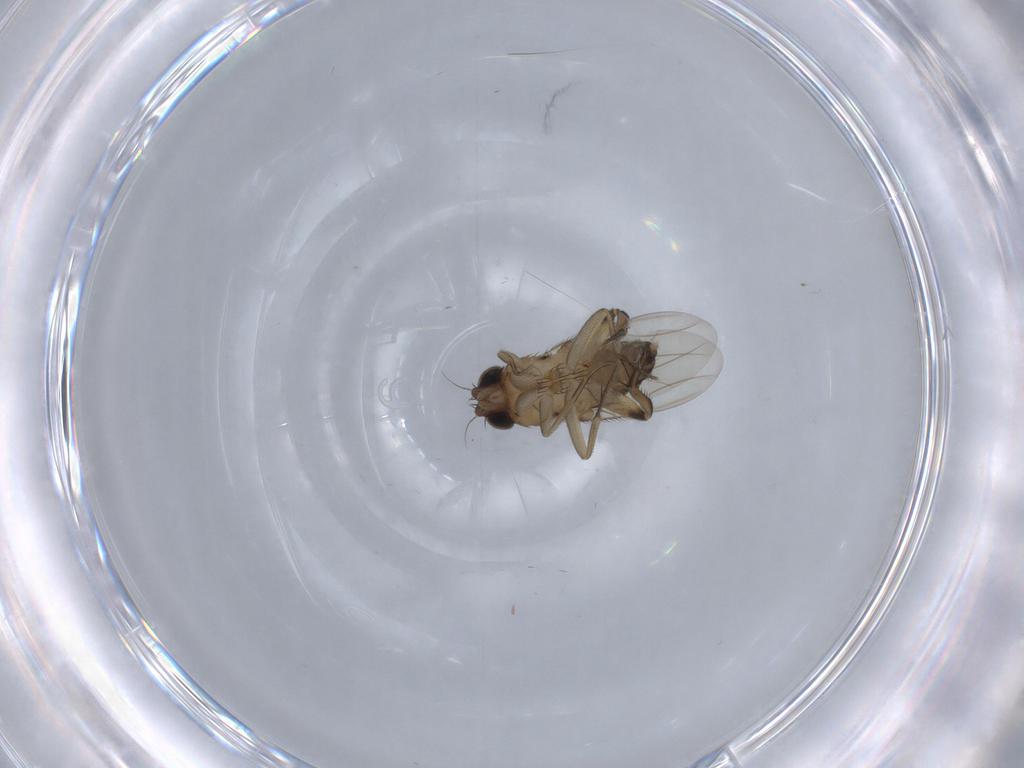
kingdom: Animalia
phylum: Arthropoda
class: Insecta
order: Diptera
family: Phoridae
